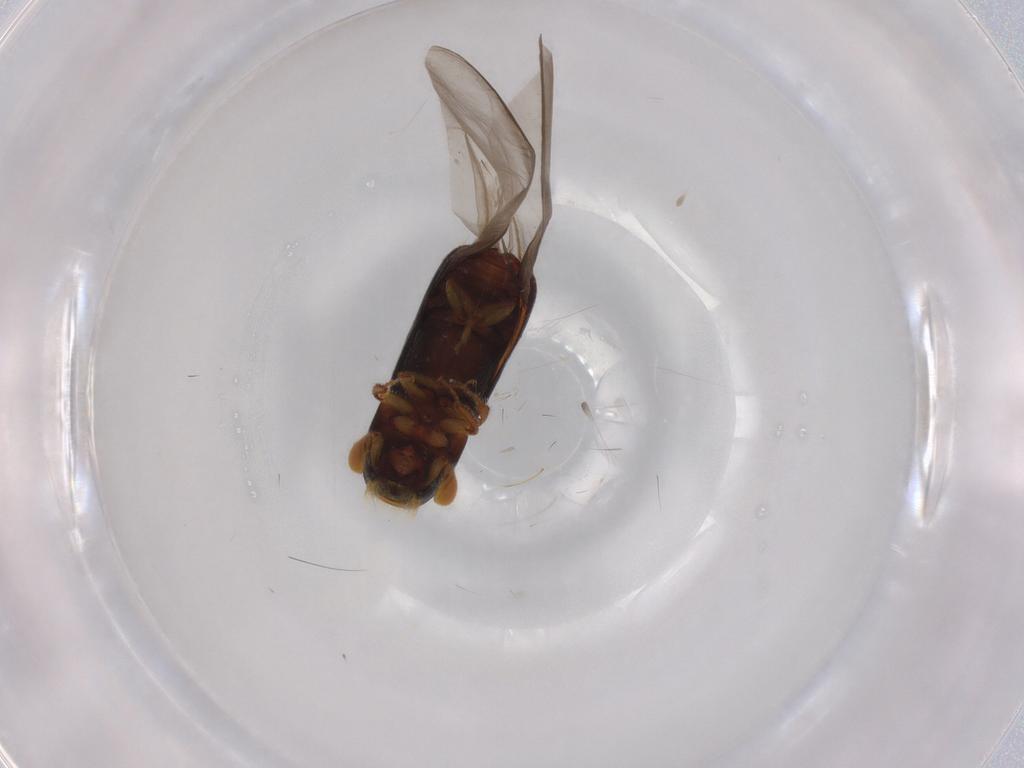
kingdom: Animalia
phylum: Arthropoda
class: Insecta
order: Coleoptera
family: Curculionidae
